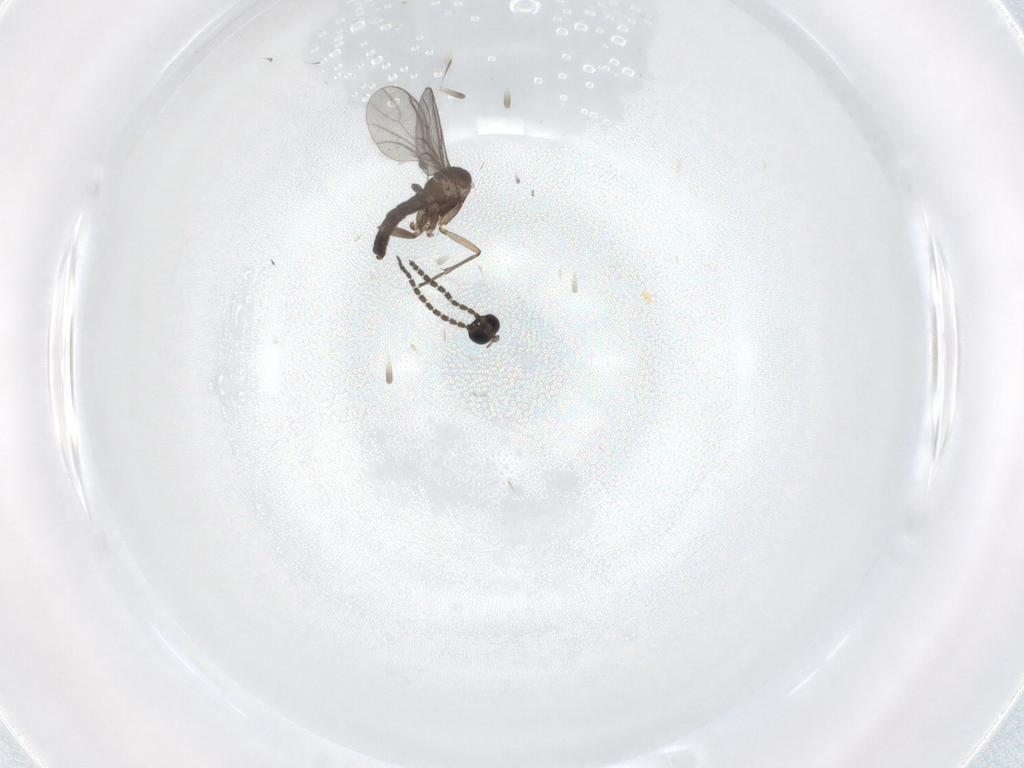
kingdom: Animalia
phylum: Arthropoda
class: Insecta
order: Diptera
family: Sciaridae
